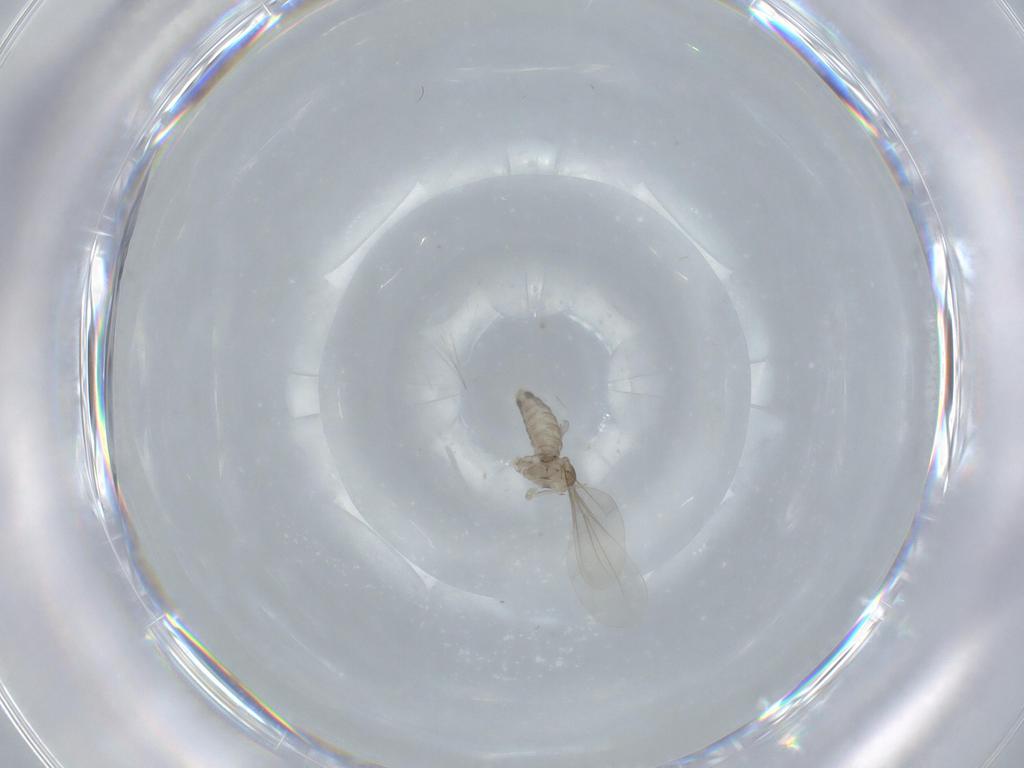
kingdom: Animalia
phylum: Arthropoda
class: Insecta
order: Diptera
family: Cecidomyiidae
